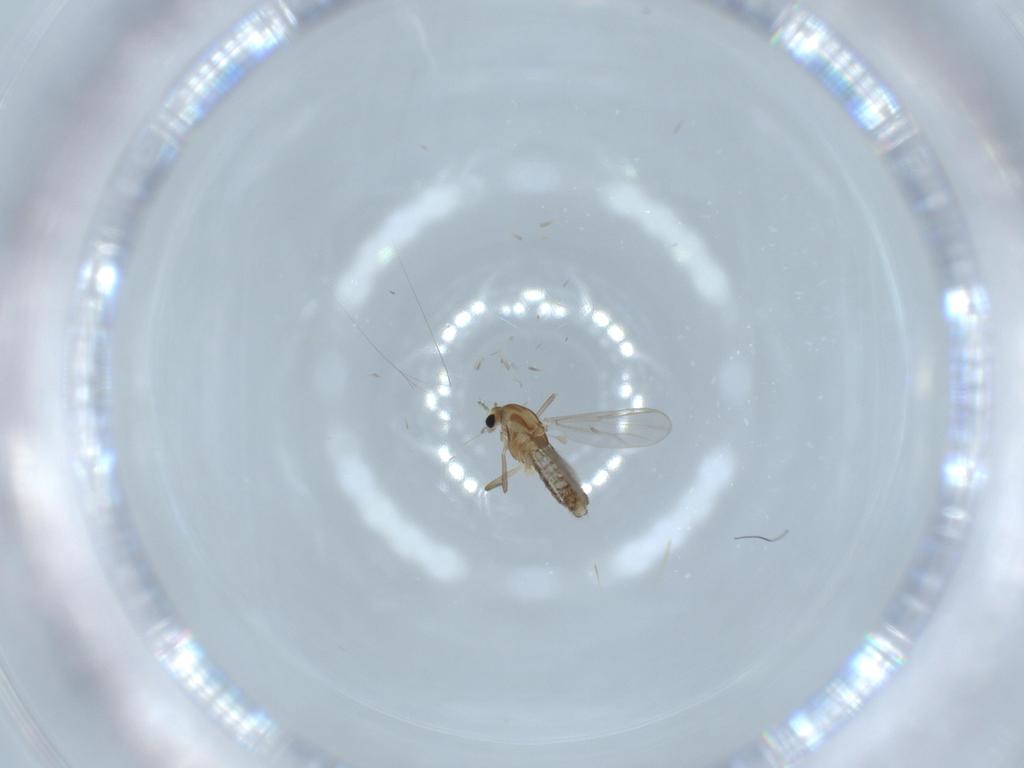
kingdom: Animalia
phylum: Arthropoda
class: Insecta
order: Diptera
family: Chironomidae
